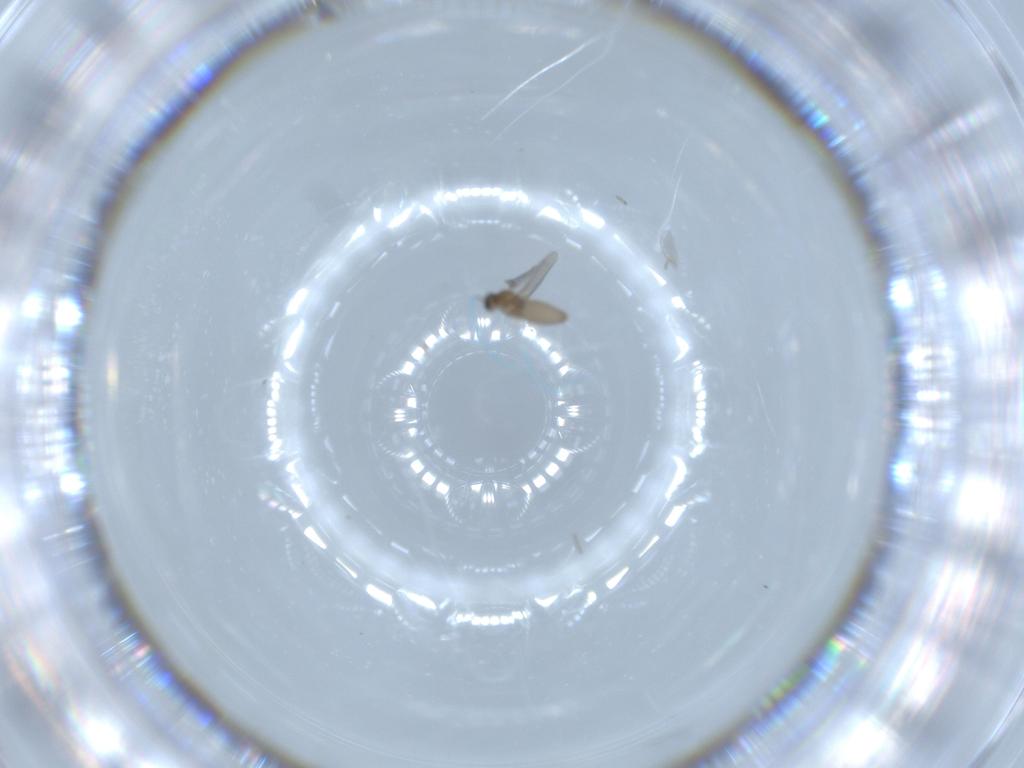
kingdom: Animalia
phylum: Arthropoda
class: Insecta
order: Diptera
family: Cecidomyiidae
